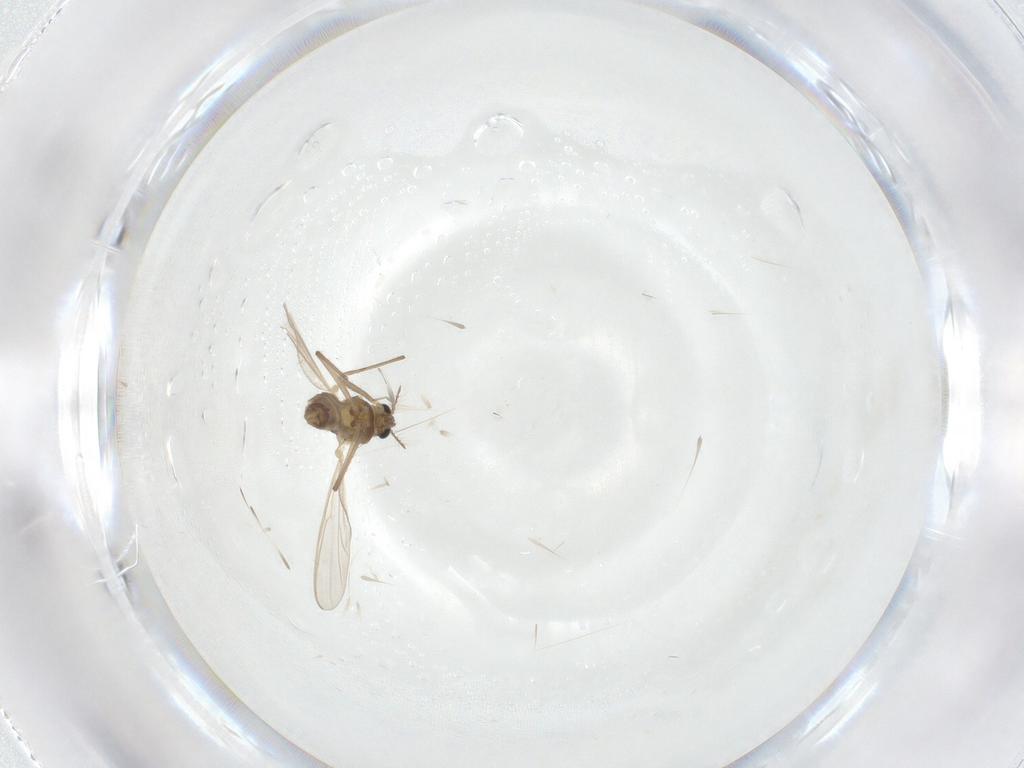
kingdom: Animalia
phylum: Arthropoda
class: Insecta
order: Diptera
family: Chironomidae
